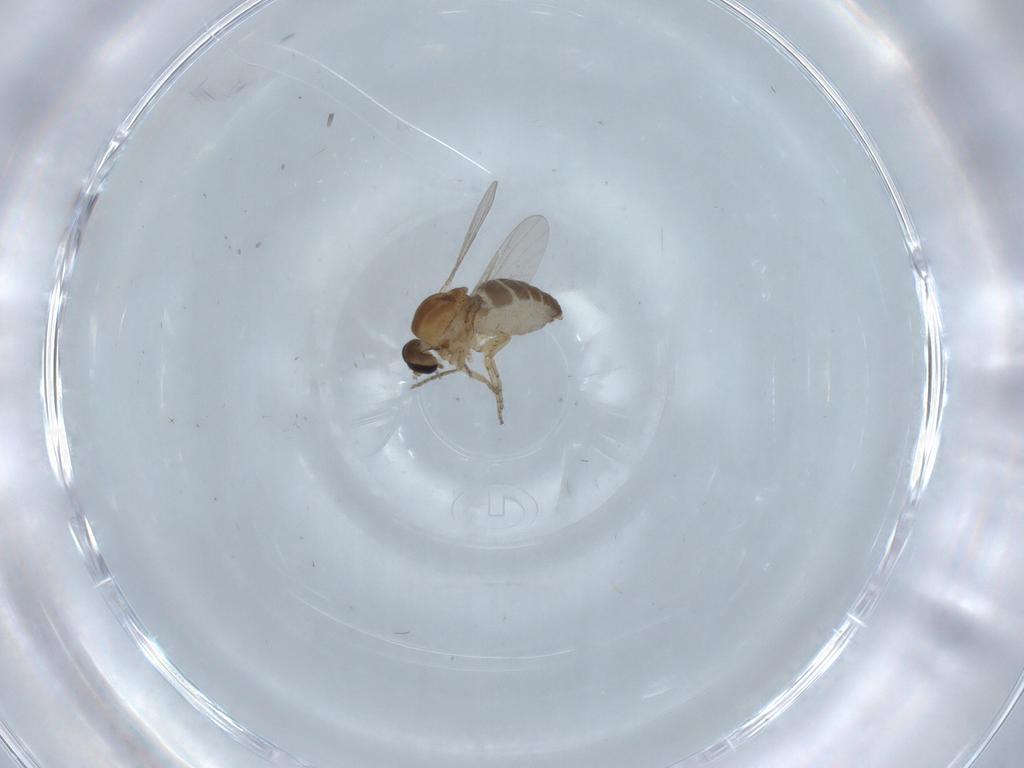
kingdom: Animalia
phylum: Arthropoda
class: Insecta
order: Diptera
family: Ceratopogonidae
